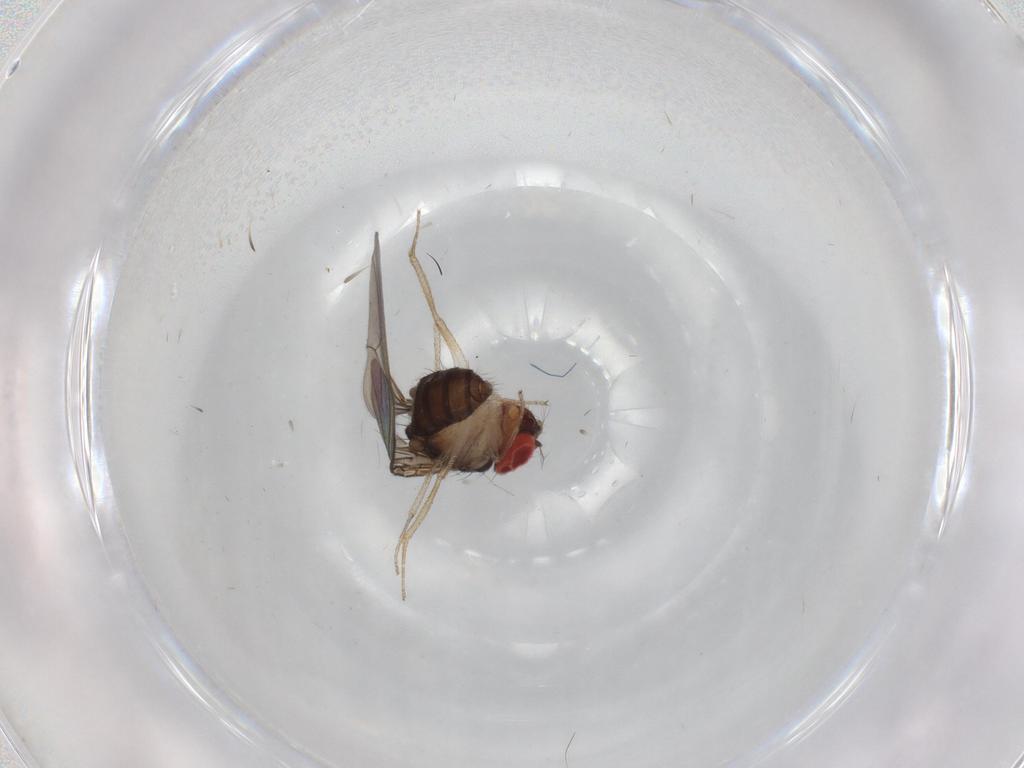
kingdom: Animalia
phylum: Arthropoda
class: Insecta
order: Diptera
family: Drosophilidae
